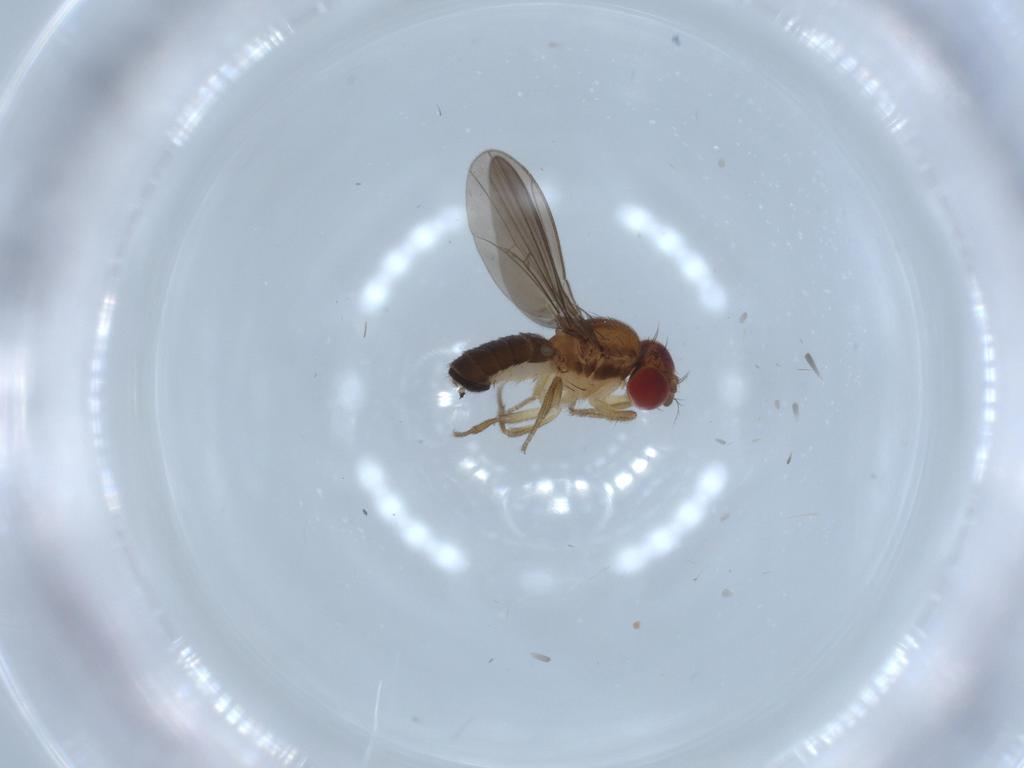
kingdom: Animalia
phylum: Arthropoda
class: Insecta
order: Diptera
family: Drosophilidae
